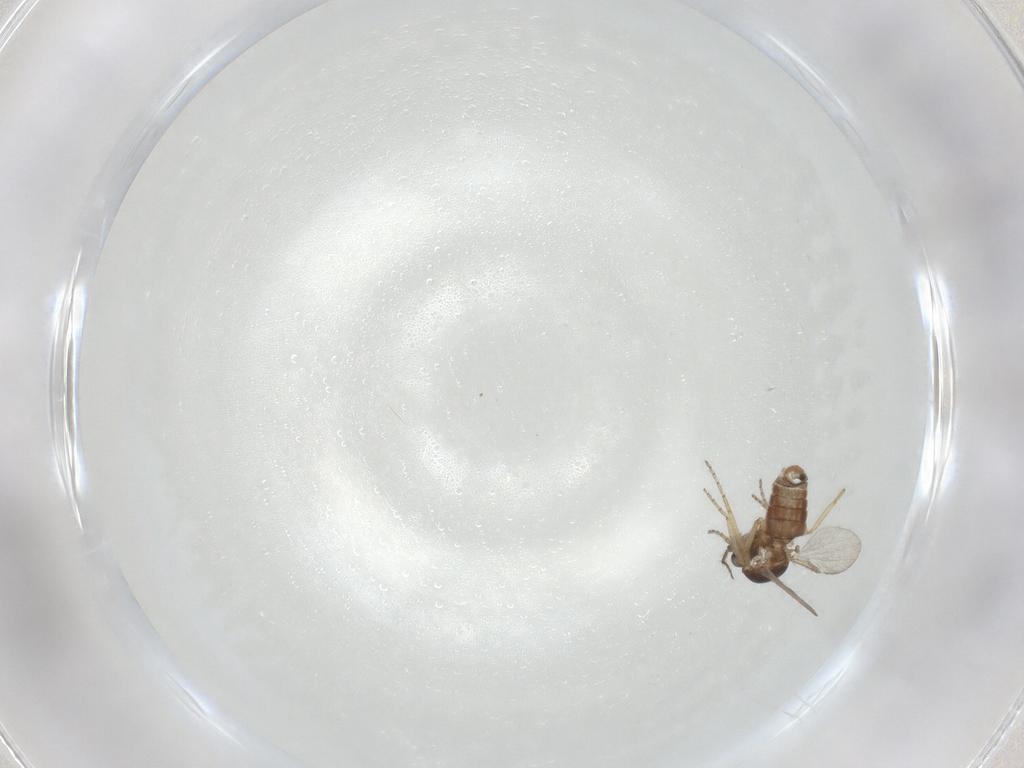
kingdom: Animalia
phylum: Arthropoda
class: Insecta
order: Diptera
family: Ceratopogonidae
